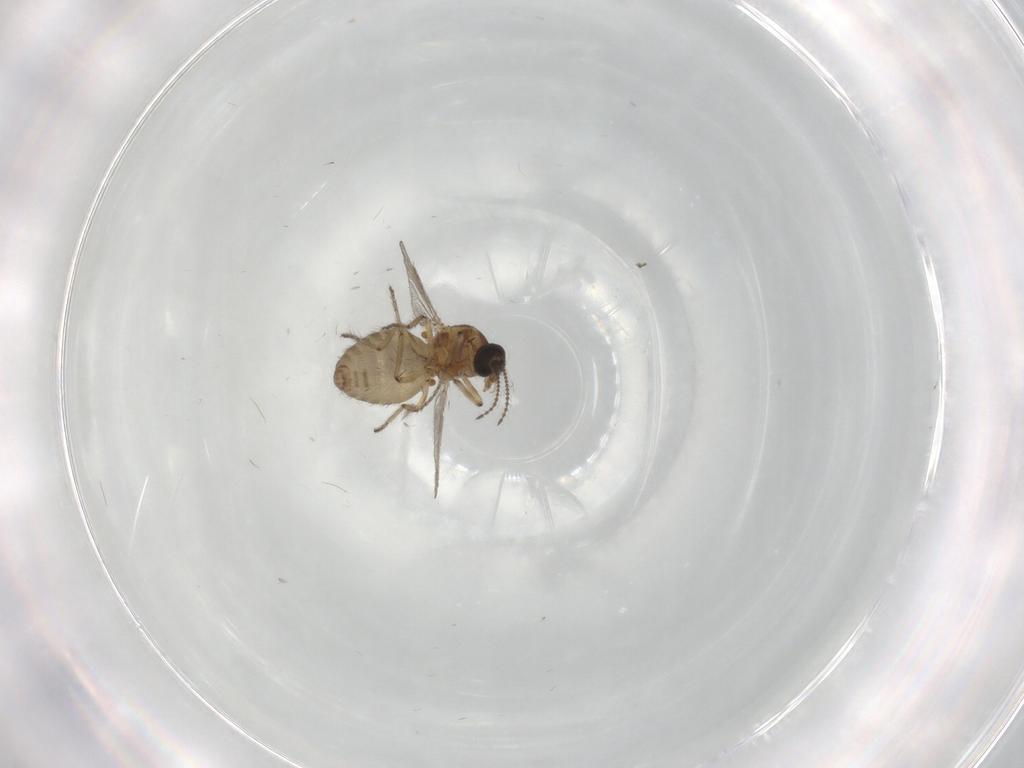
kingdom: Animalia
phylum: Arthropoda
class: Insecta
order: Diptera
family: Ceratopogonidae
